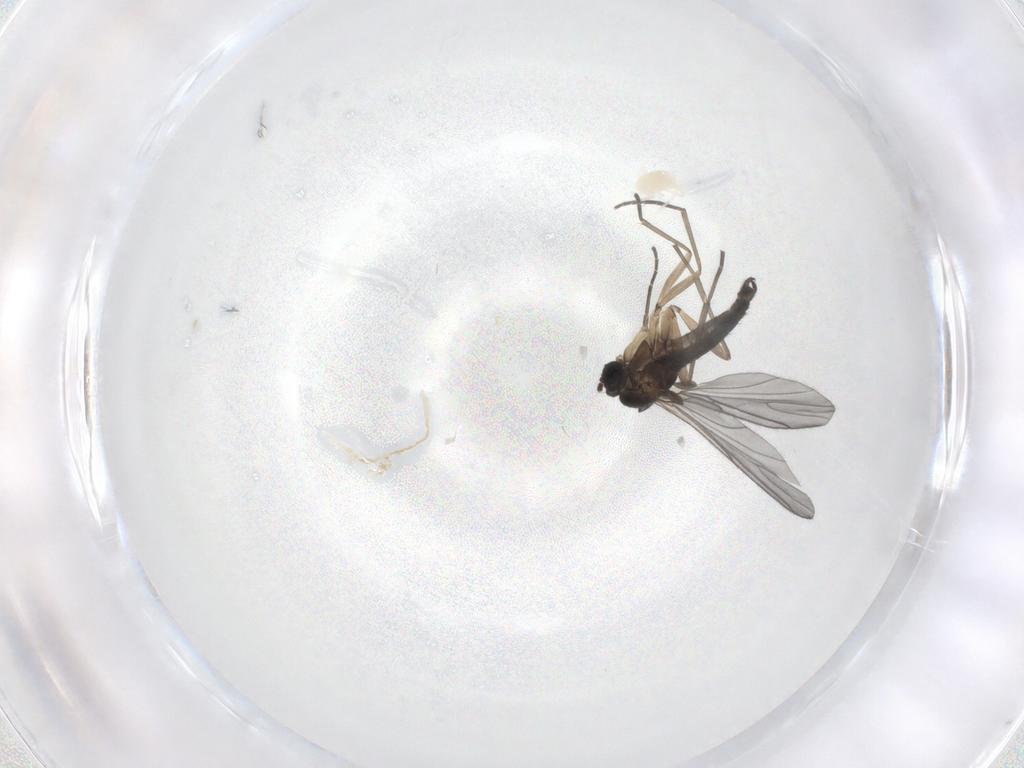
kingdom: Animalia
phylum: Arthropoda
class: Insecta
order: Diptera
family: Sciaridae
